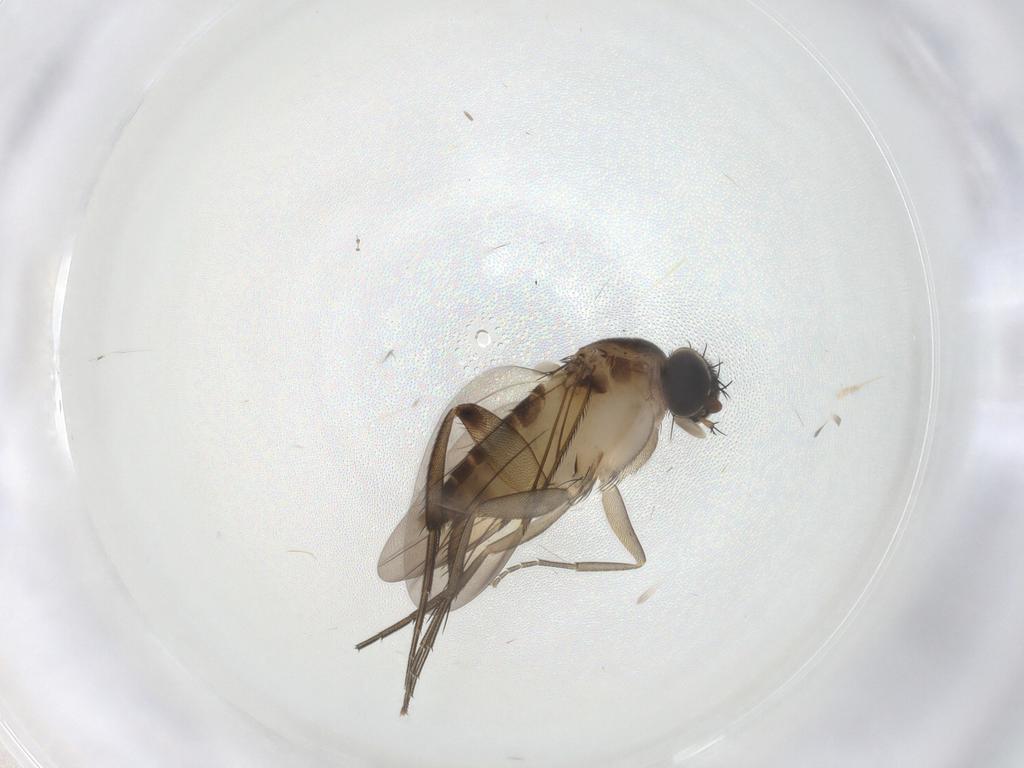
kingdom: Animalia
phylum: Arthropoda
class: Insecta
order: Diptera
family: Phoridae
